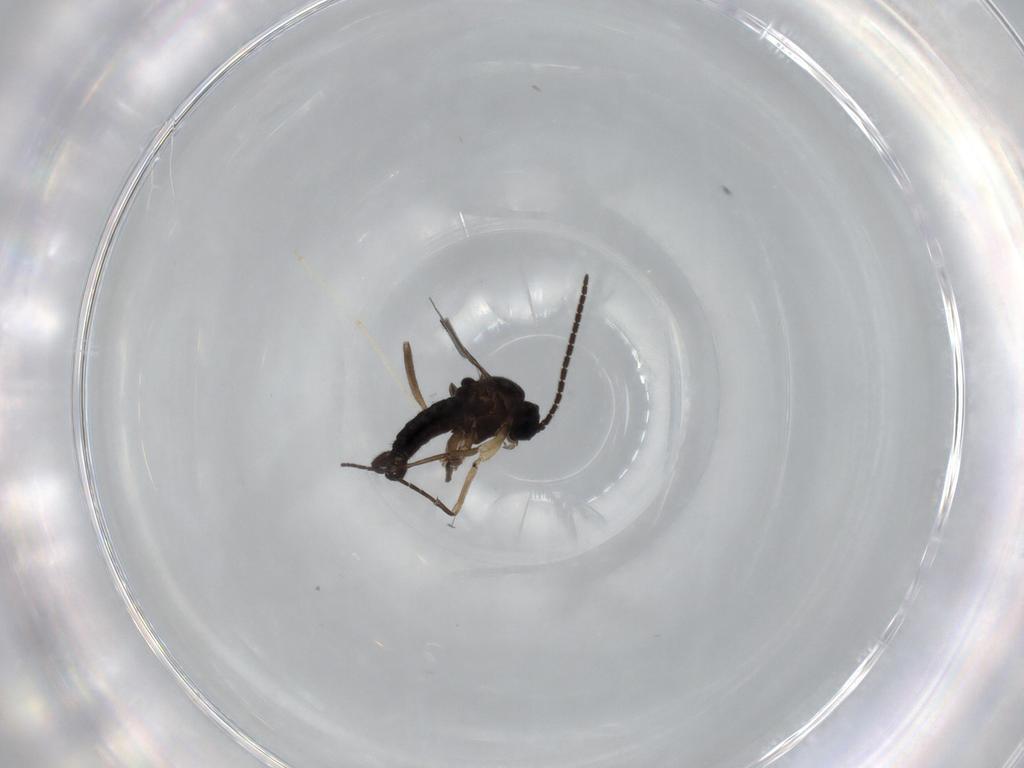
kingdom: Animalia
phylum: Arthropoda
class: Insecta
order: Diptera
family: Sciaridae
